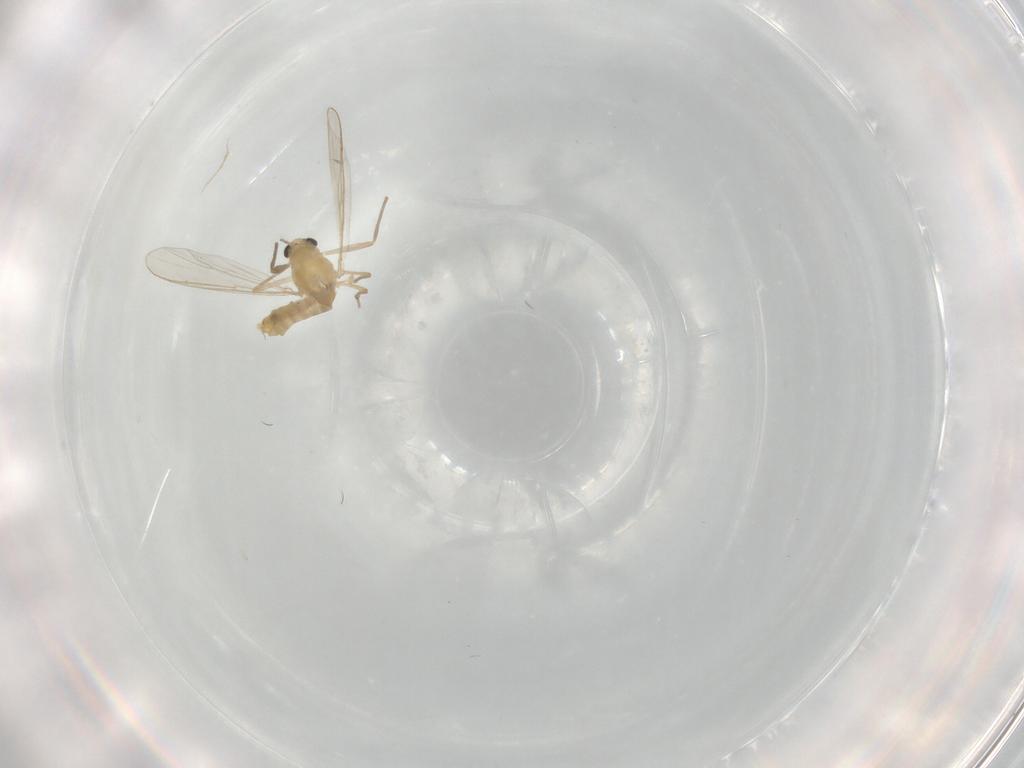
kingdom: Animalia
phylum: Arthropoda
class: Insecta
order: Diptera
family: Chironomidae
